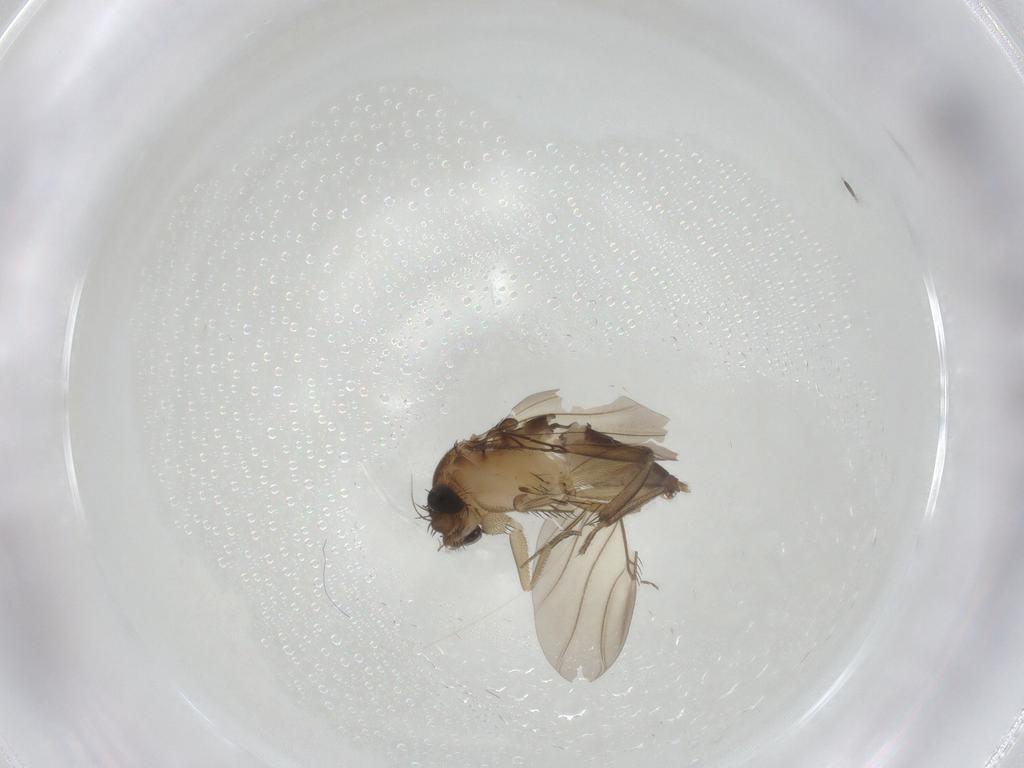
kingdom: Animalia
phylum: Arthropoda
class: Insecta
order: Diptera
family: Phoridae
